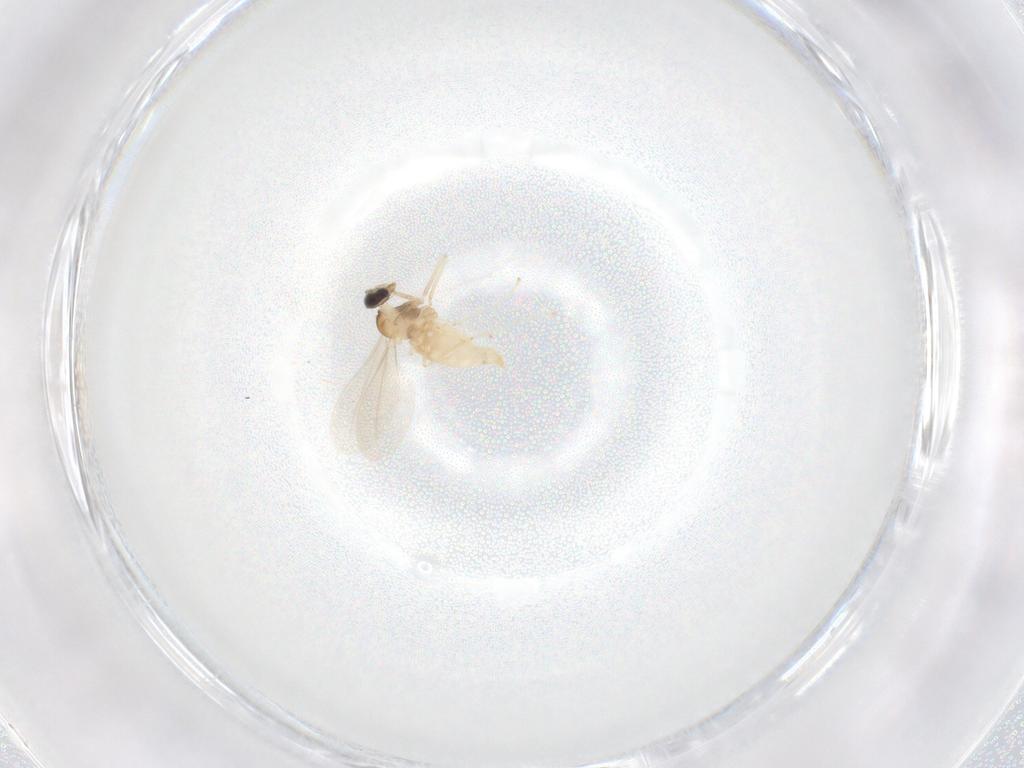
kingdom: Animalia
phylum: Arthropoda
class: Insecta
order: Diptera
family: Cecidomyiidae
